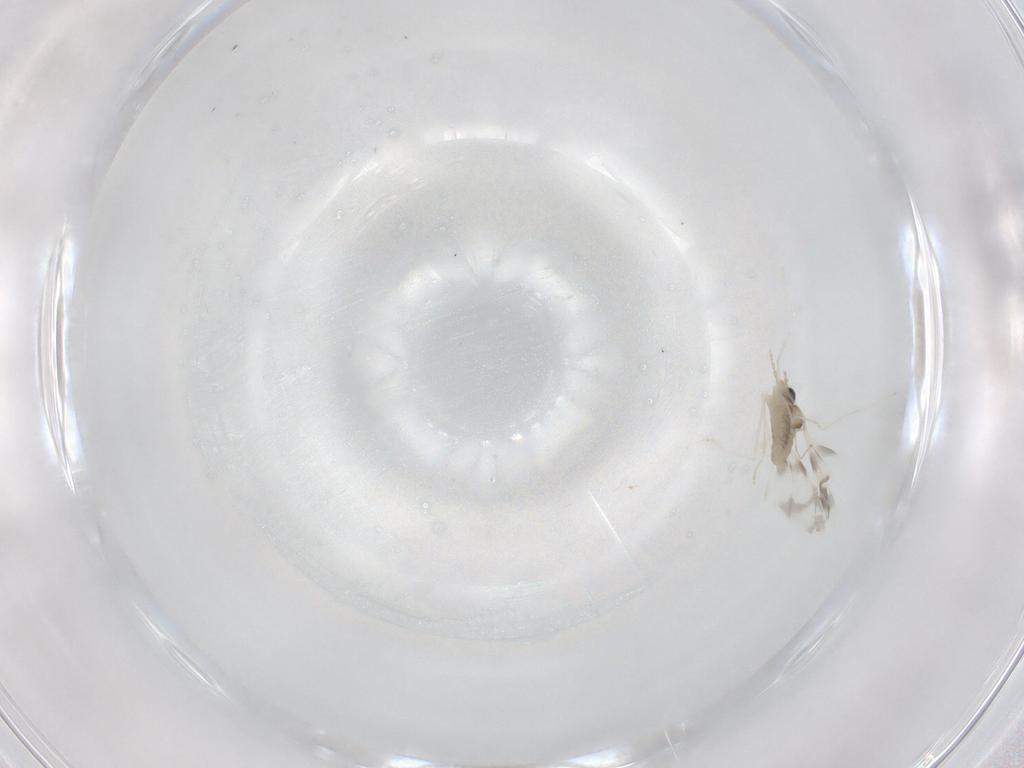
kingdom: Animalia
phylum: Arthropoda
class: Insecta
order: Diptera
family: Cecidomyiidae
